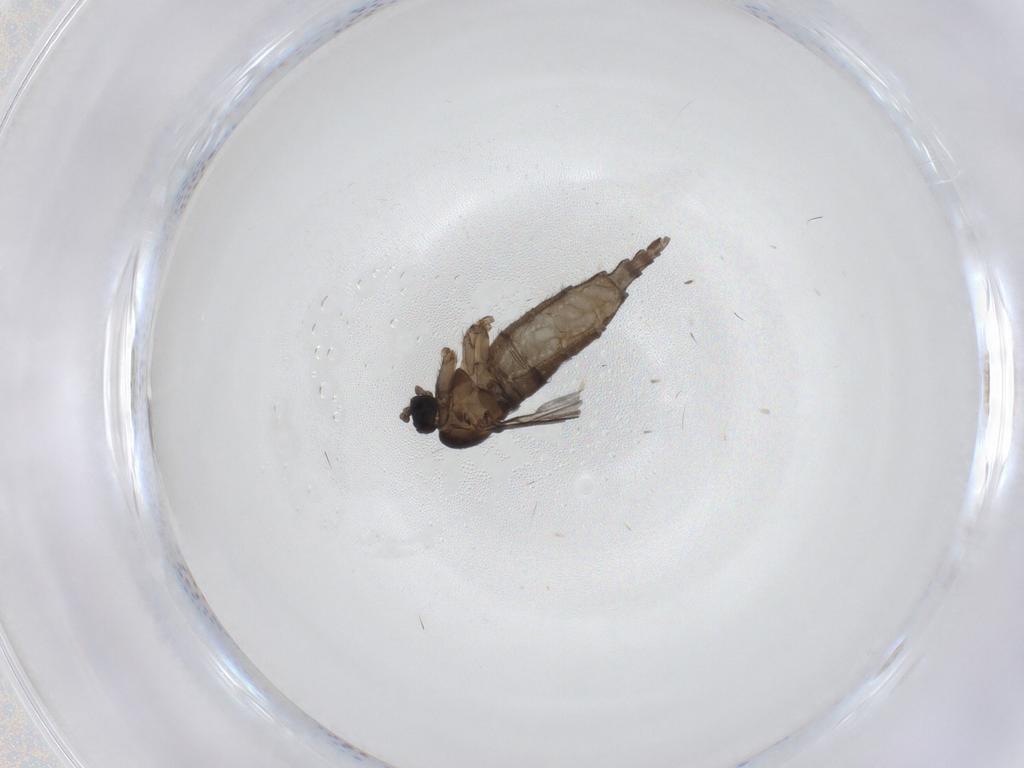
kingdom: Animalia
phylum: Arthropoda
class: Insecta
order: Diptera
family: Sciaridae
